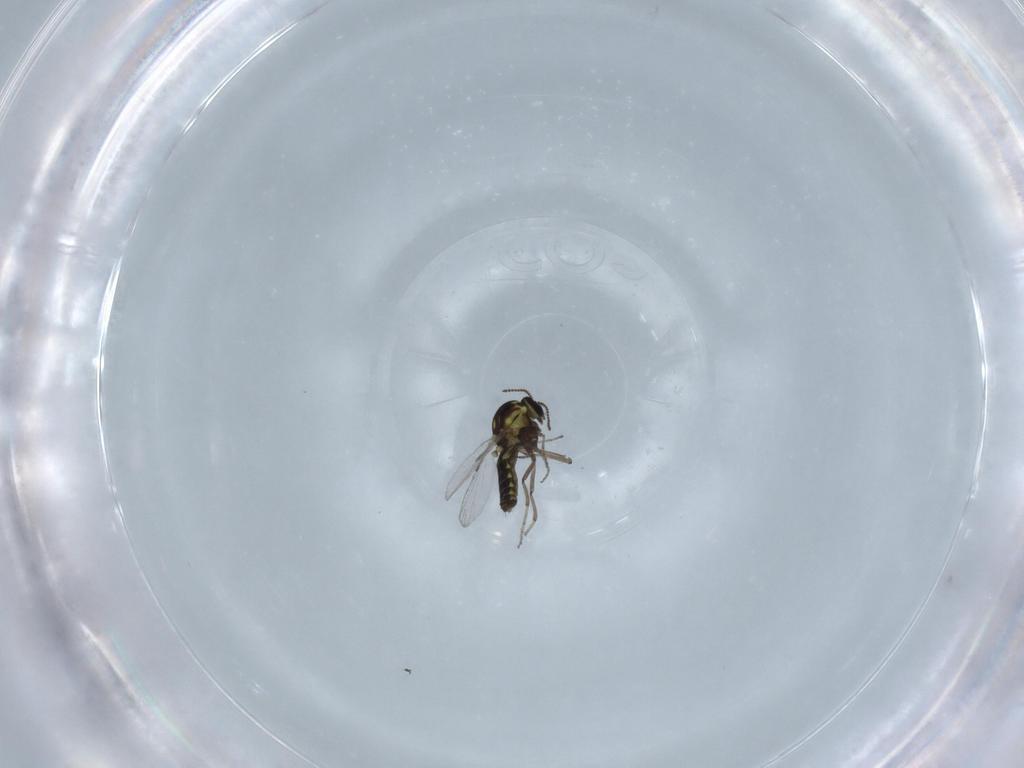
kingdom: Animalia
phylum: Arthropoda
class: Insecta
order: Diptera
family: Ceratopogonidae
